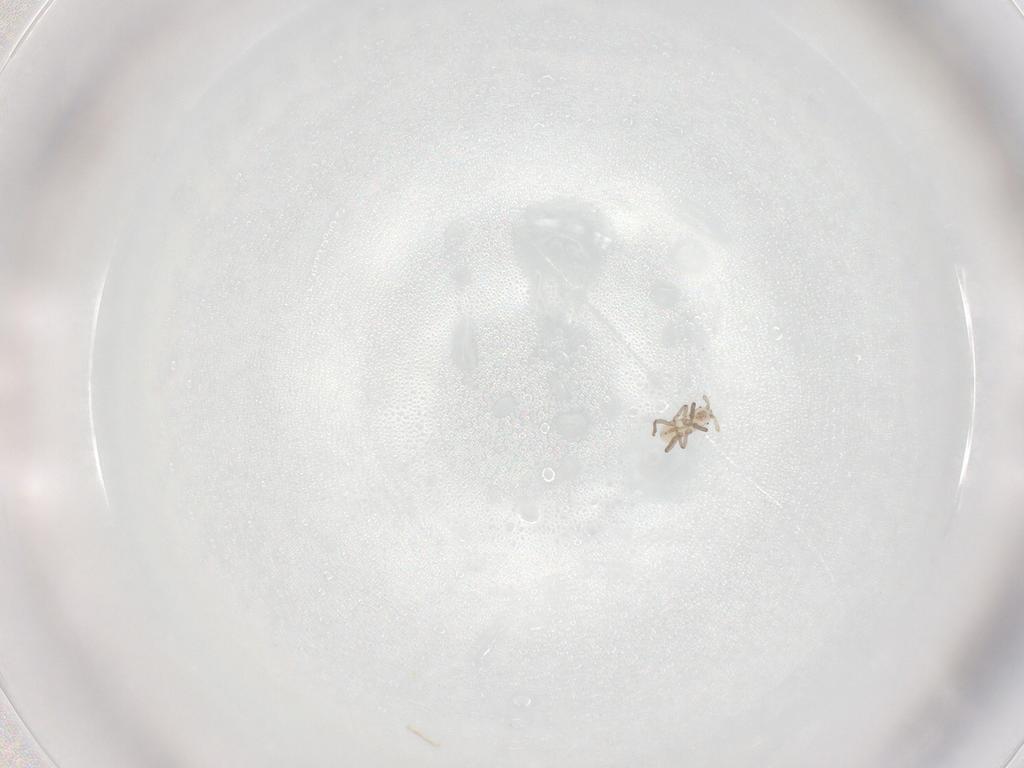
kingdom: Animalia
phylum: Arthropoda
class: Insecta
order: Hemiptera
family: Aphididae
